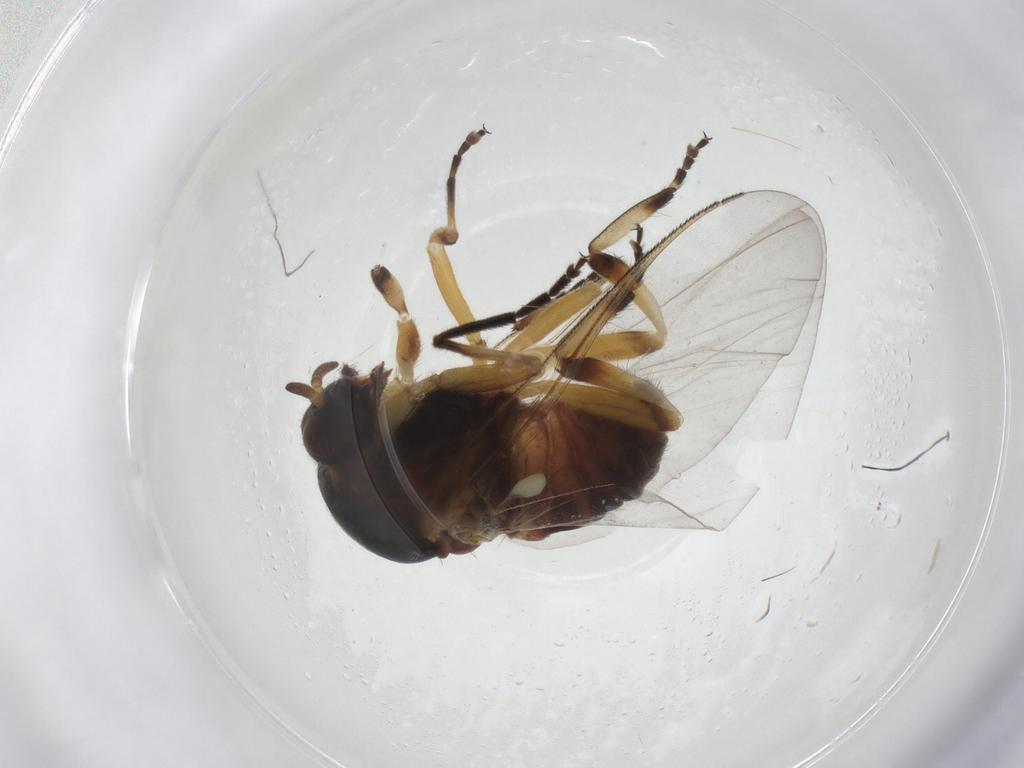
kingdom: Animalia
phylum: Arthropoda
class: Insecta
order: Diptera
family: Simuliidae
